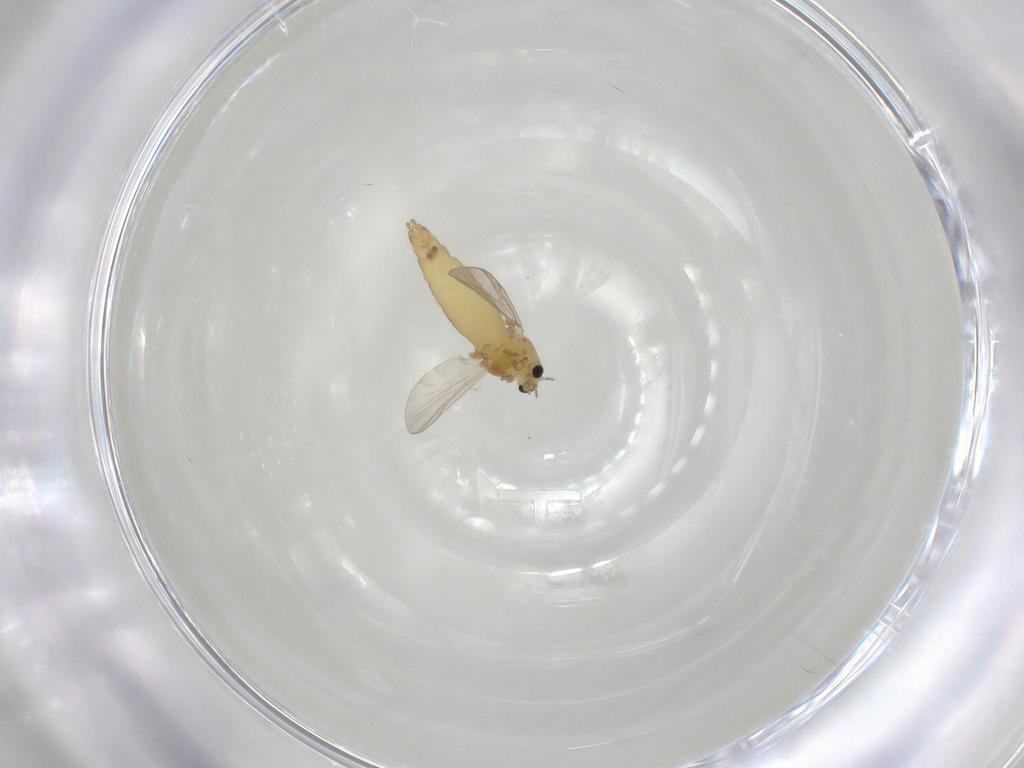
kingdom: Animalia
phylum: Arthropoda
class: Insecta
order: Diptera
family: Chironomidae
